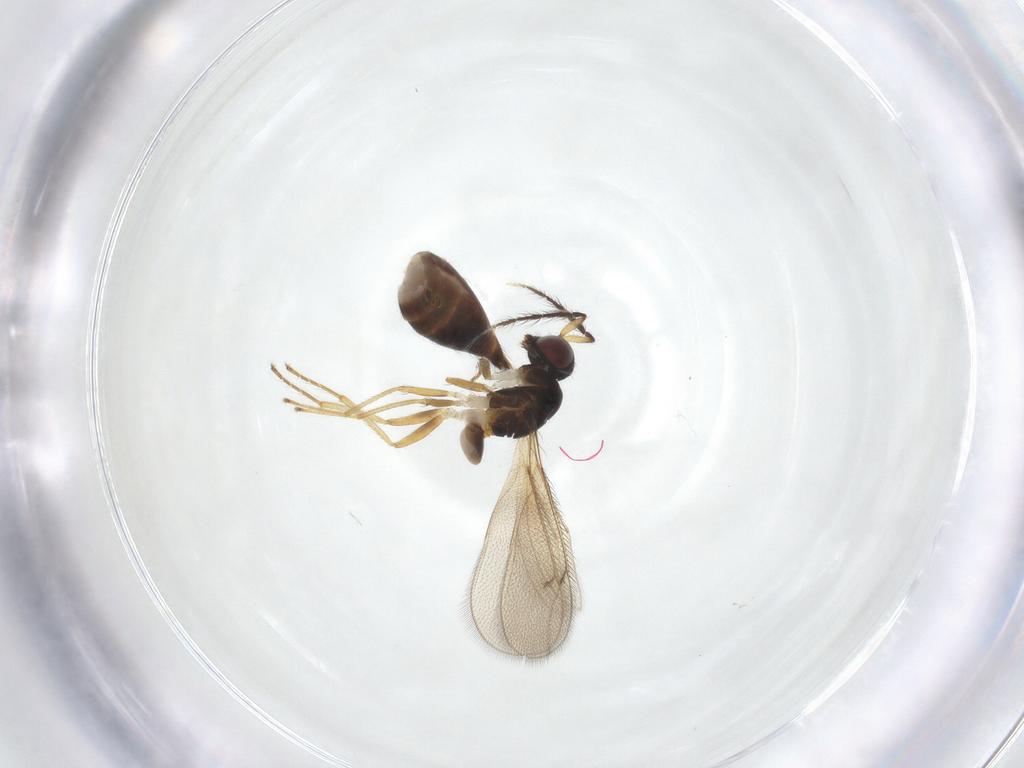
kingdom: Animalia
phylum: Arthropoda
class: Insecta
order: Hymenoptera
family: Eulophidae
